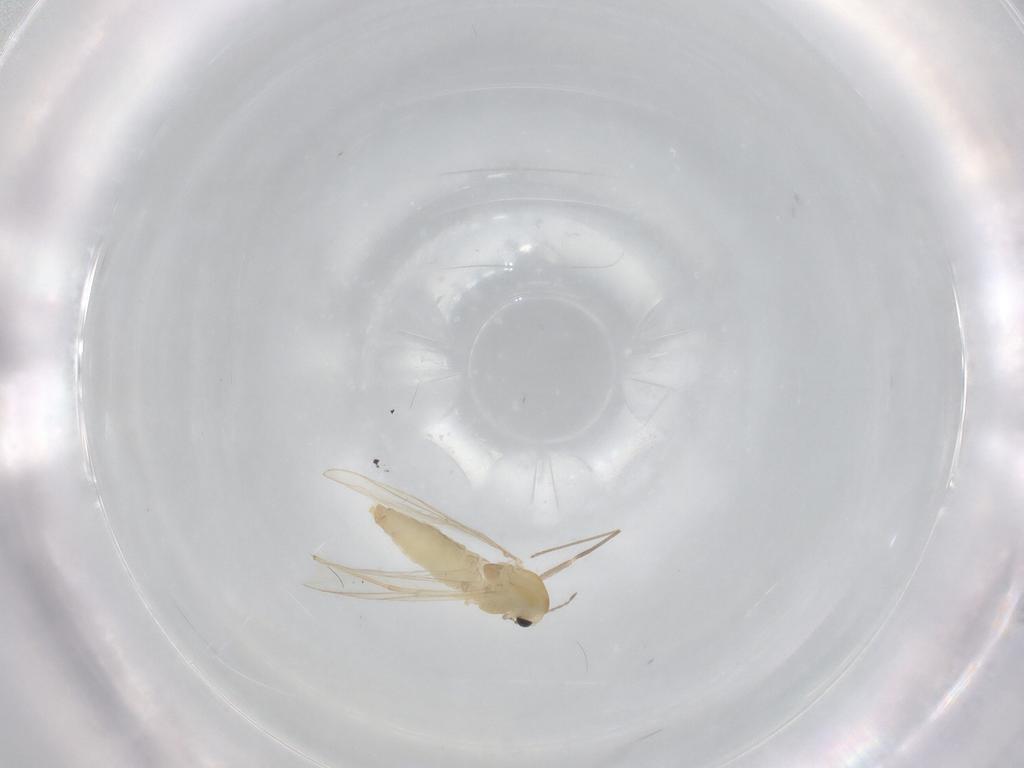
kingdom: Animalia
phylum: Arthropoda
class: Insecta
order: Diptera
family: Chironomidae
